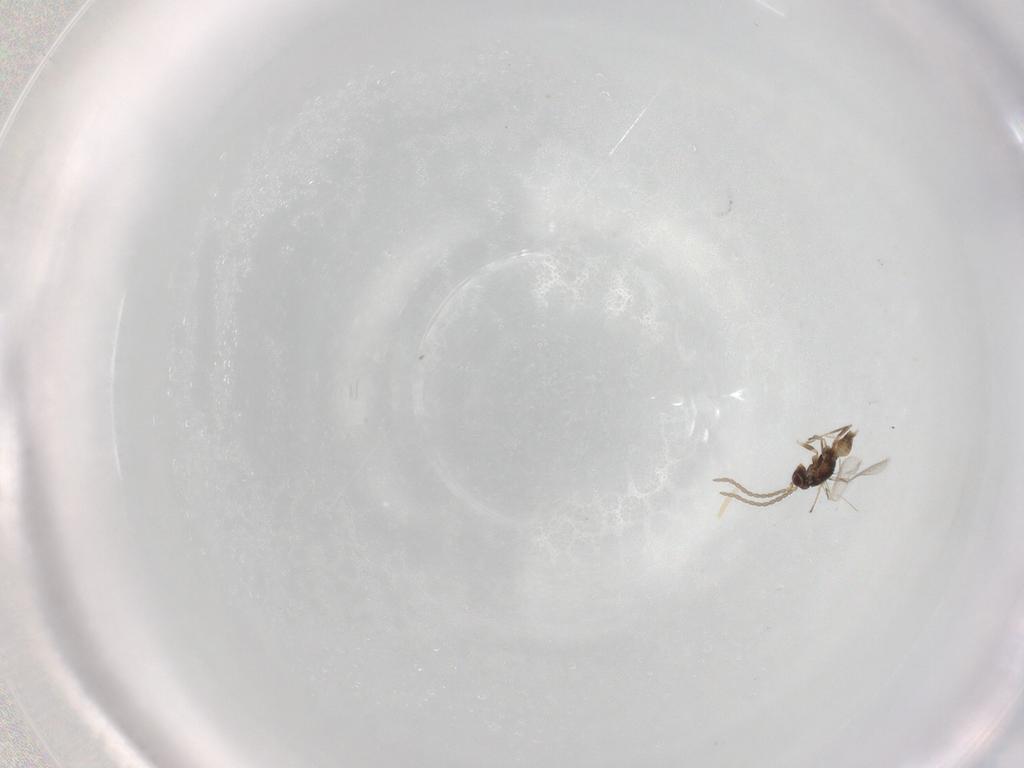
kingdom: Animalia
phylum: Arthropoda
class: Insecta
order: Hymenoptera
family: Mymaridae
